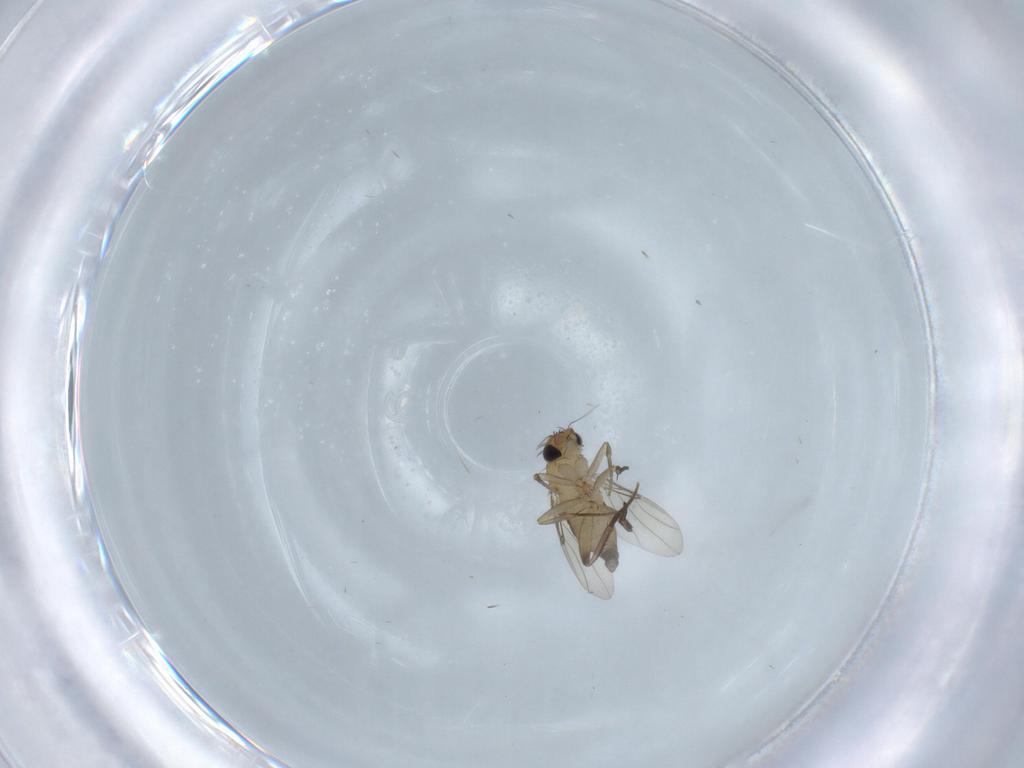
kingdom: Animalia
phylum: Arthropoda
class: Insecta
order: Diptera
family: Phoridae
